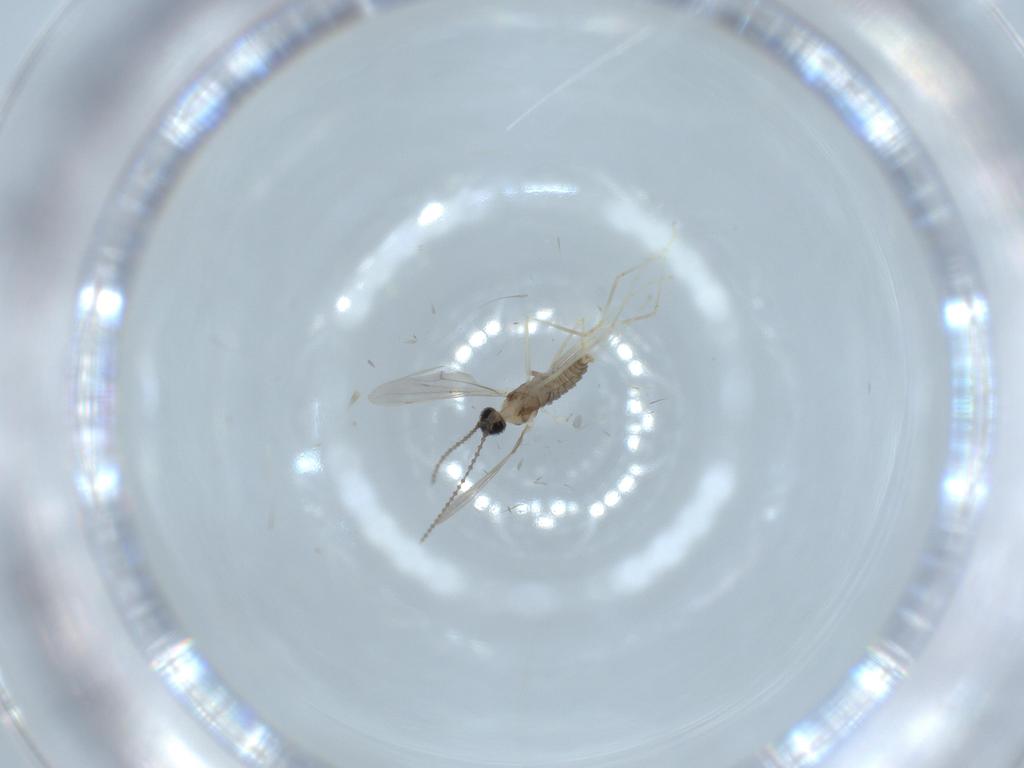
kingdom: Animalia
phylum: Arthropoda
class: Insecta
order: Diptera
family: Cecidomyiidae
